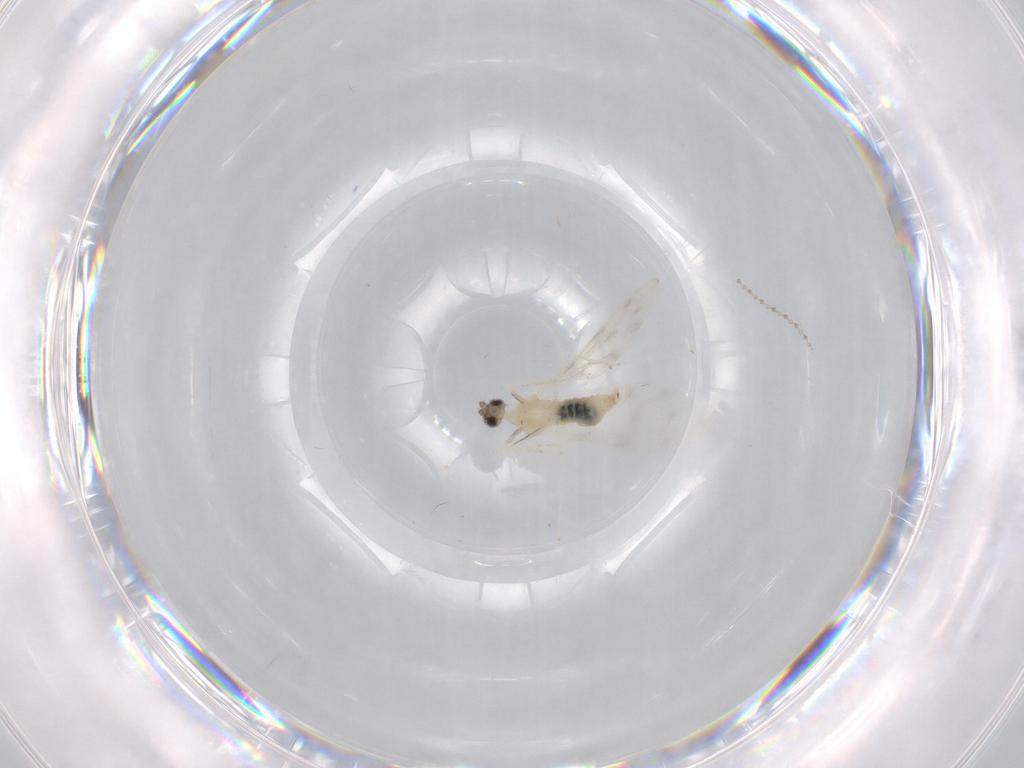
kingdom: Animalia
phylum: Arthropoda
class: Insecta
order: Diptera
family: Cecidomyiidae
